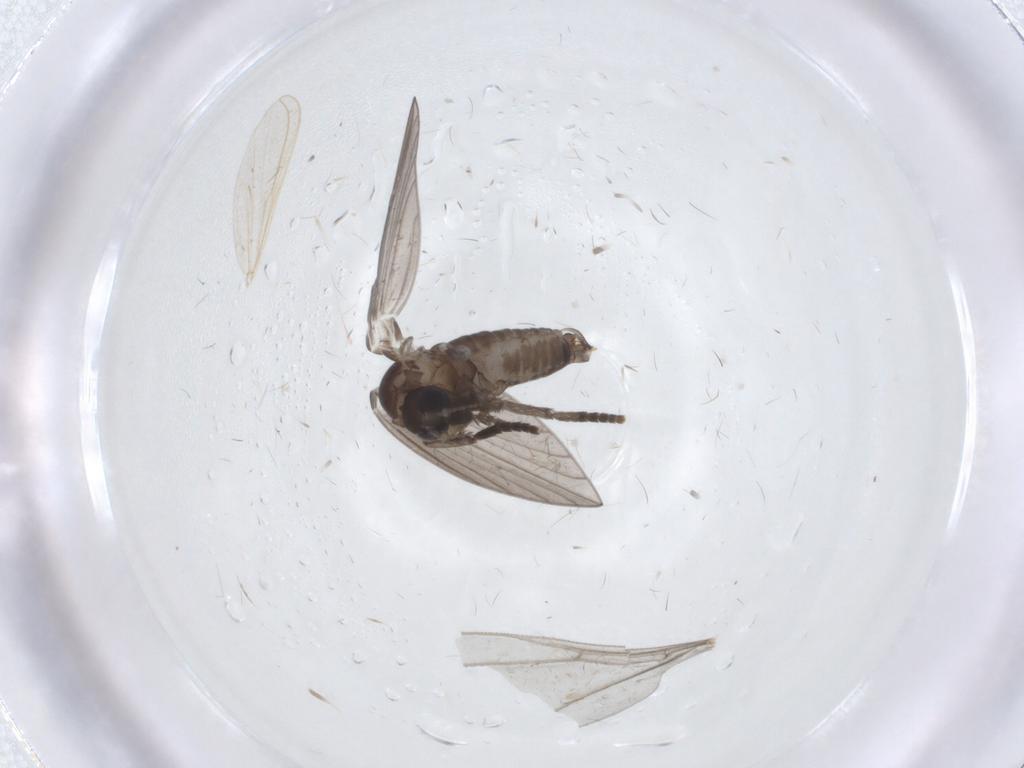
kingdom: Animalia
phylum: Arthropoda
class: Insecta
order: Diptera
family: Psychodidae
